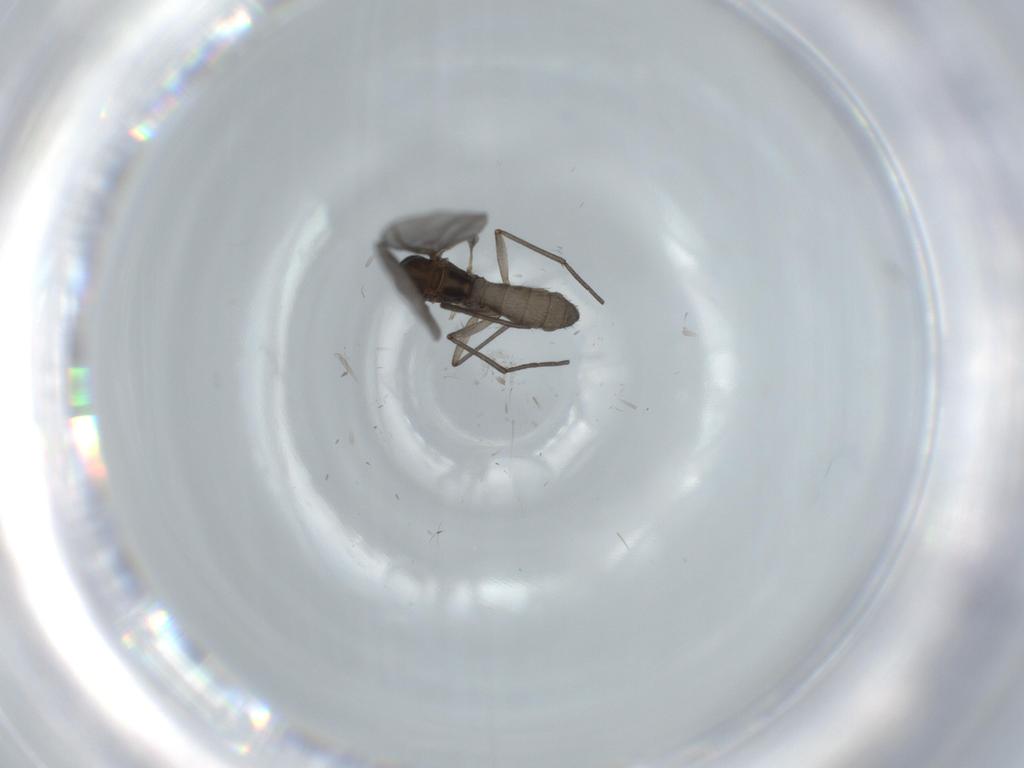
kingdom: Animalia
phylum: Arthropoda
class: Insecta
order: Diptera
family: Sciaridae
